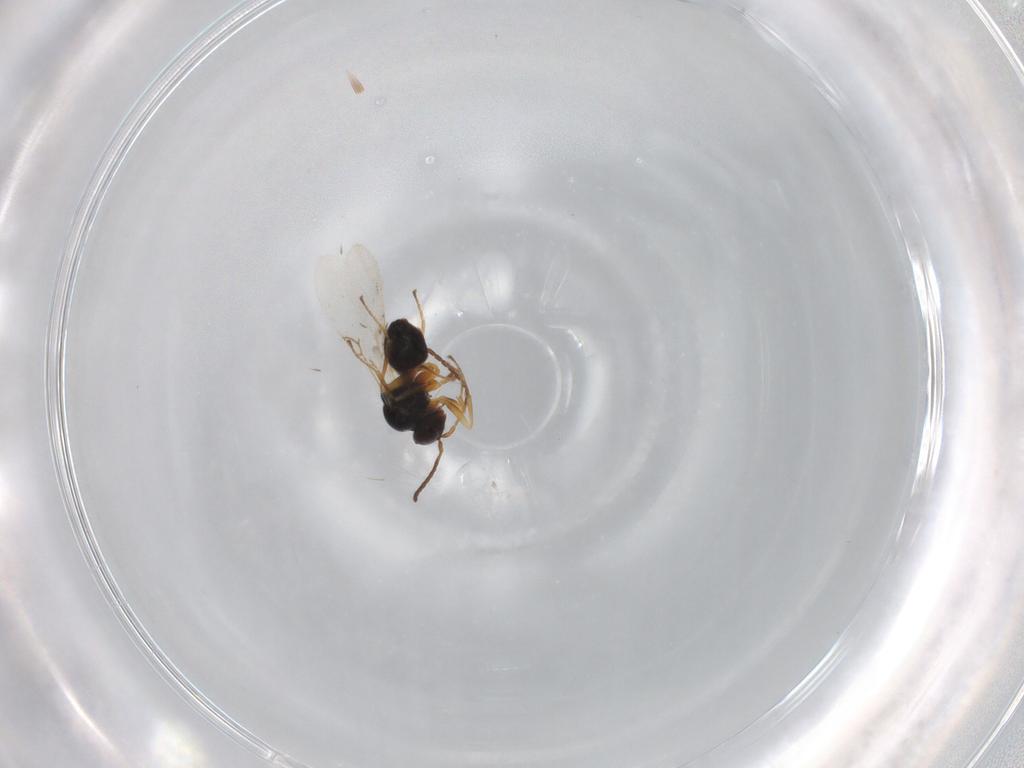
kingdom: Animalia
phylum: Arthropoda
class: Insecta
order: Hymenoptera
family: Figitidae
